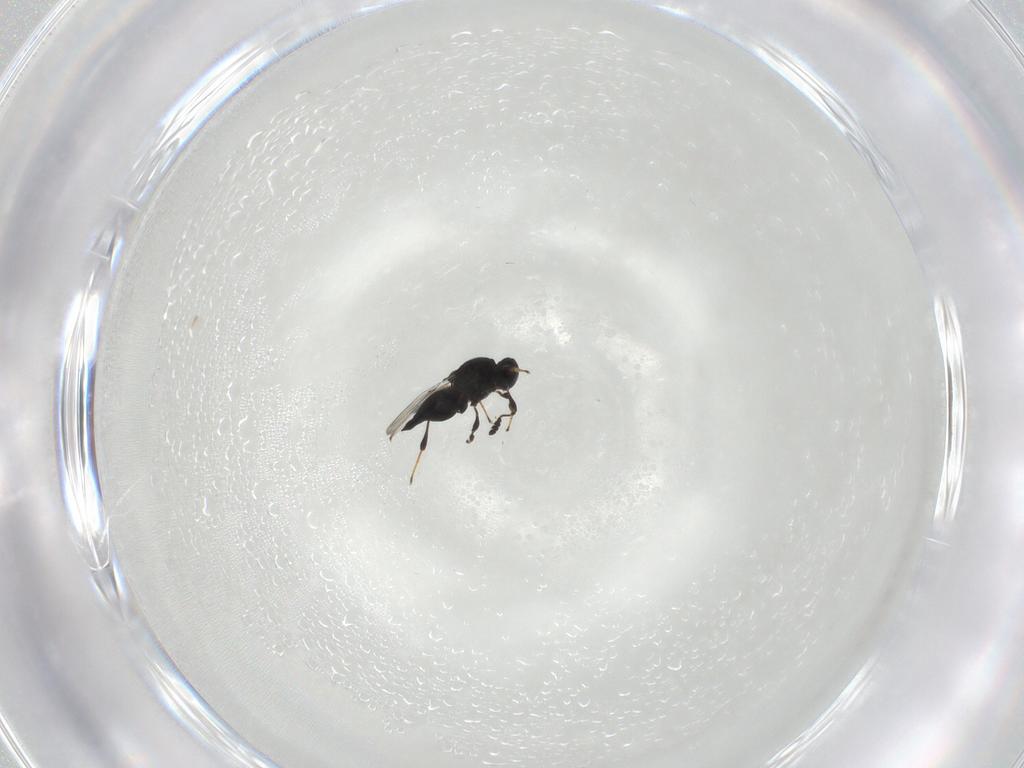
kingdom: Animalia
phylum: Arthropoda
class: Insecta
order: Hymenoptera
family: Platygastridae
